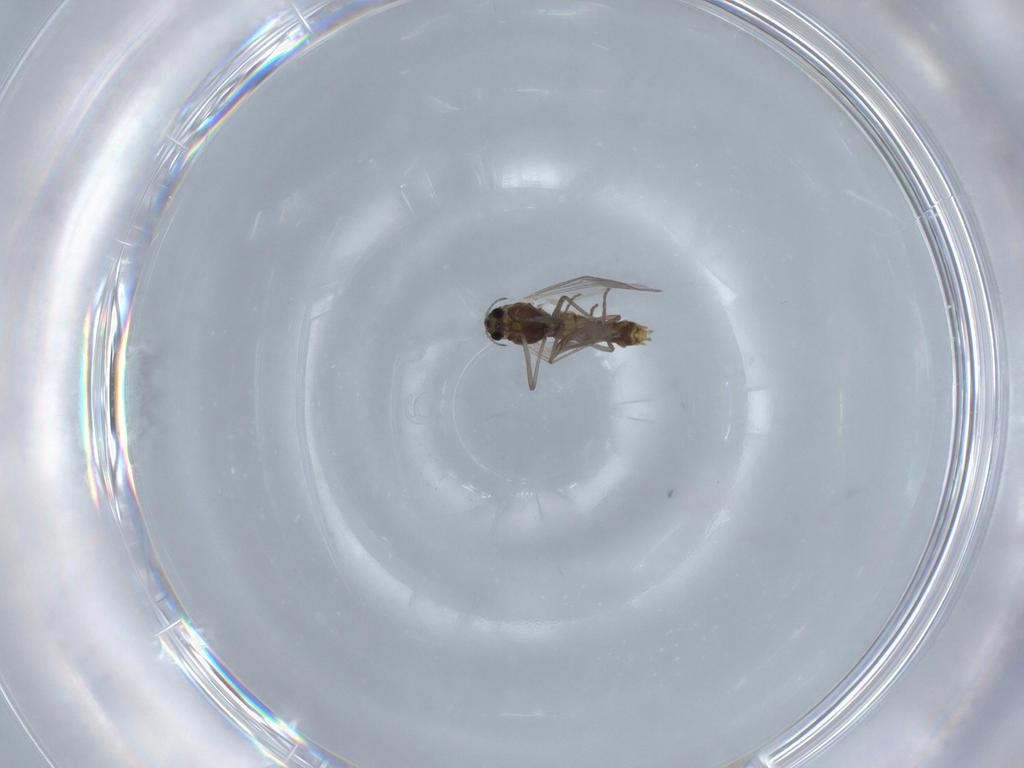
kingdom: Animalia
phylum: Arthropoda
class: Insecta
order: Diptera
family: Chironomidae
